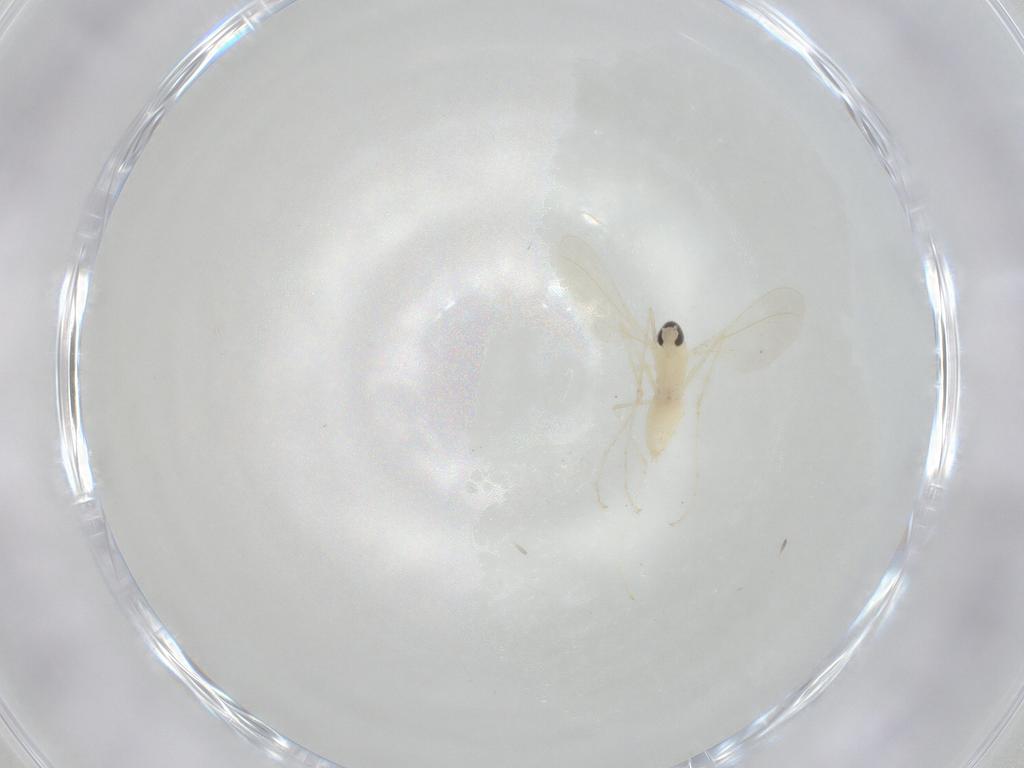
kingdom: Animalia
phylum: Arthropoda
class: Insecta
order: Diptera
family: Cecidomyiidae
